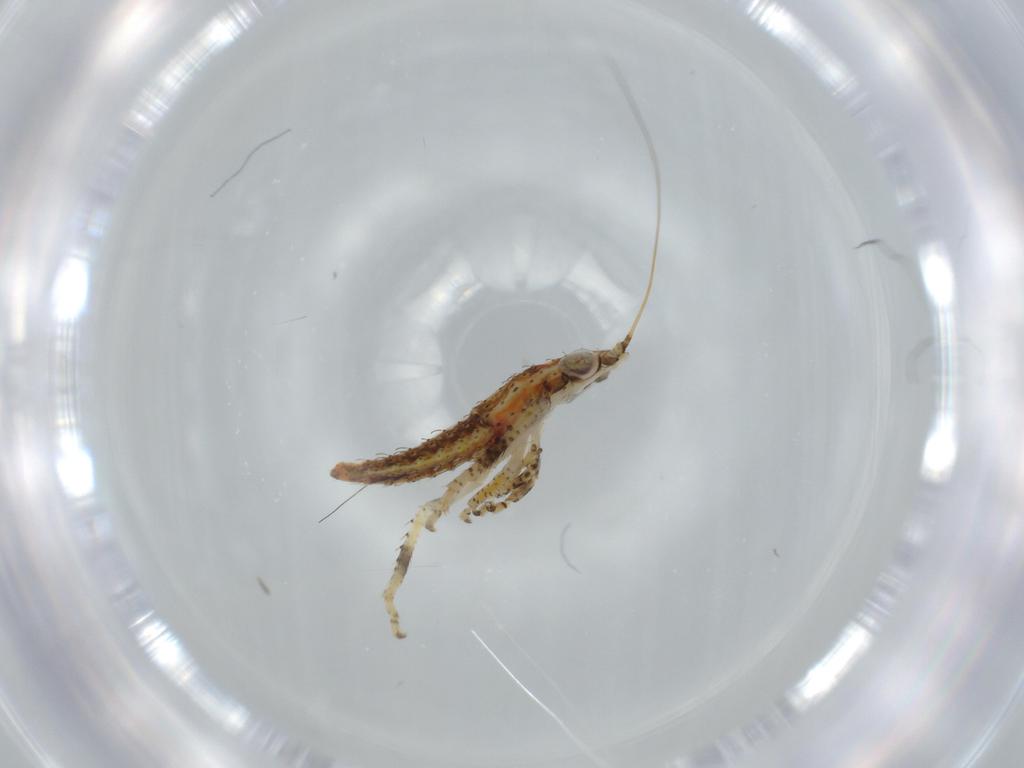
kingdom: Animalia
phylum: Arthropoda
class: Insecta
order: Hemiptera
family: Cicadellidae
